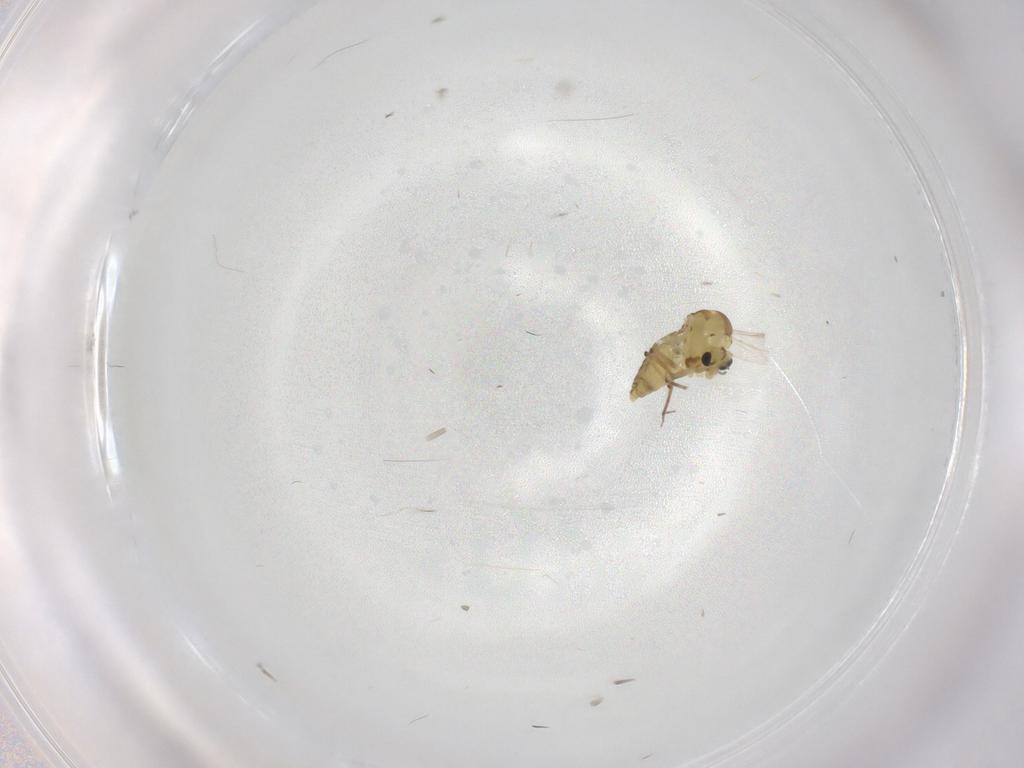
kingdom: Animalia
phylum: Arthropoda
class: Insecta
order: Diptera
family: Chironomidae
